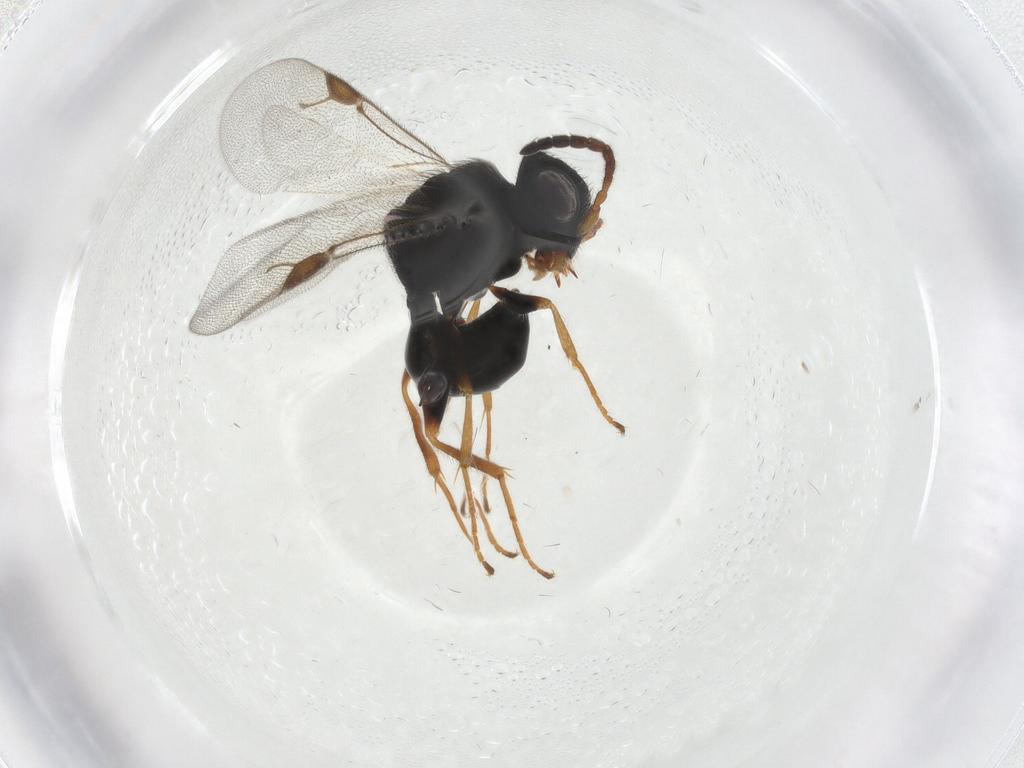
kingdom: Animalia
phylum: Arthropoda
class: Insecta
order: Hymenoptera
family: Dryinidae
